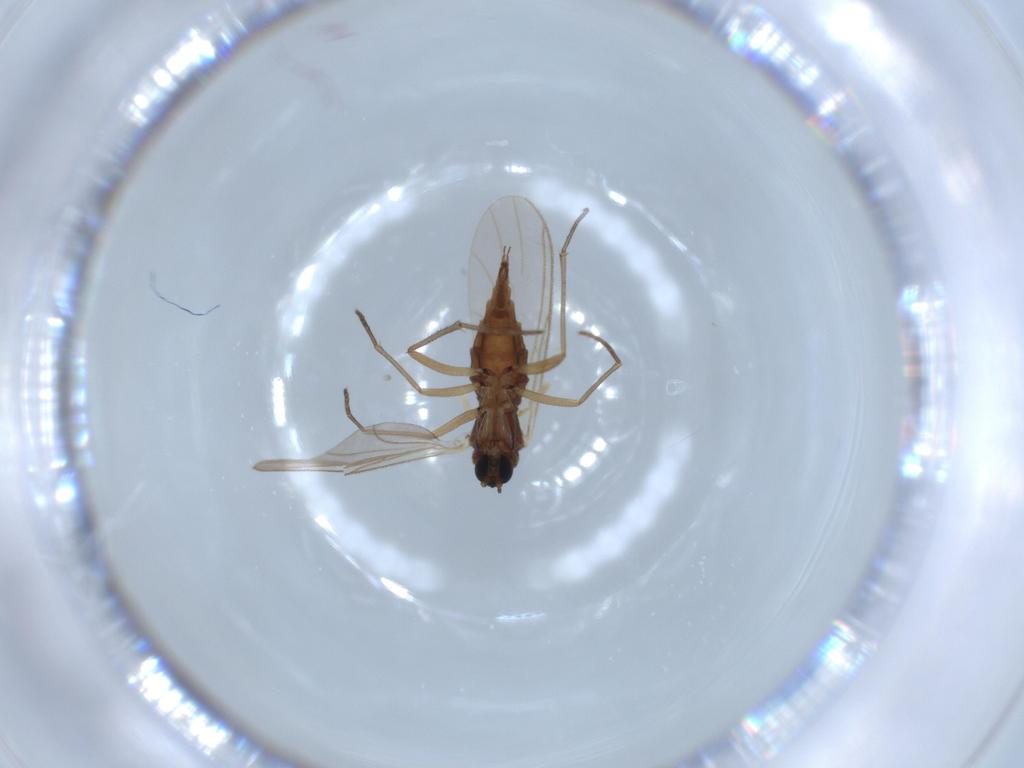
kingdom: Animalia
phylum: Arthropoda
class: Insecta
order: Diptera
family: Sciaridae
